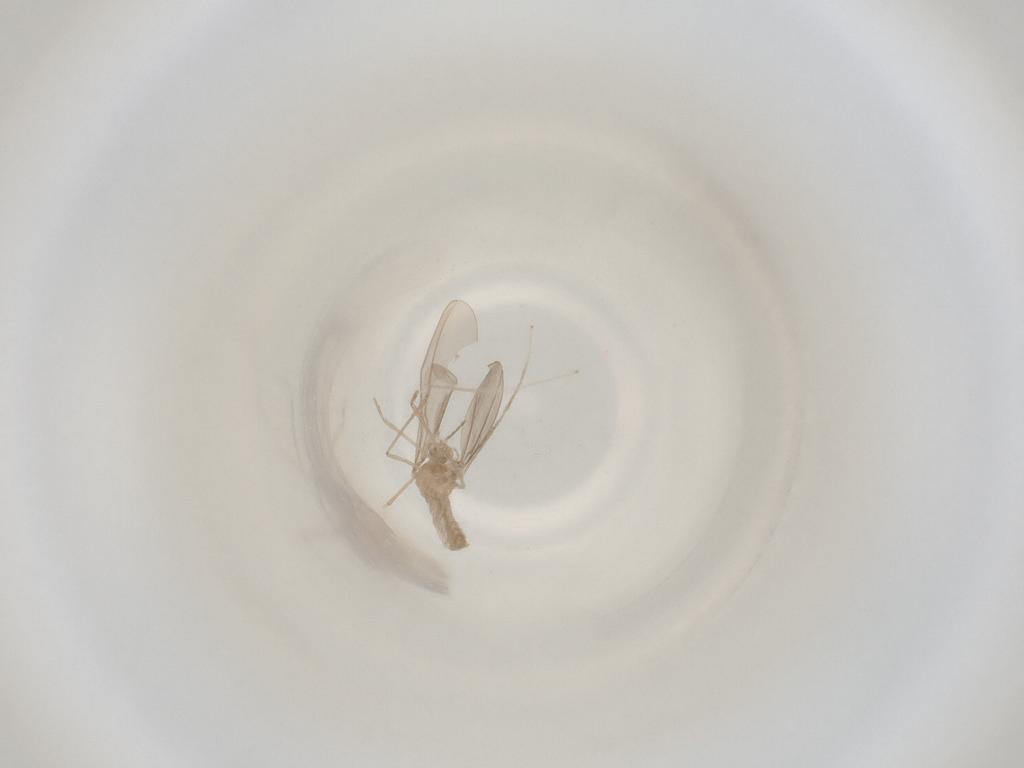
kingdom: Animalia
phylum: Arthropoda
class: Insecta
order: Diptera
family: Cecidomyiidae
